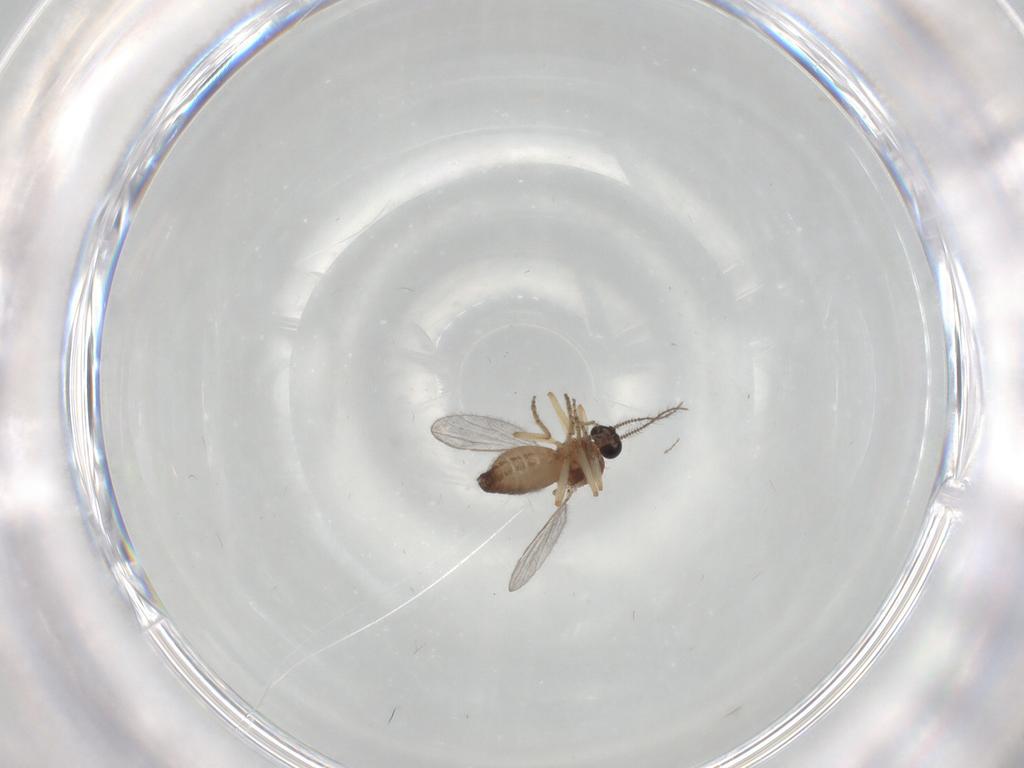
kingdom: Animalia
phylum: Arthropoda
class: Insecta
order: Diptera
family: Ceratopogonidae
